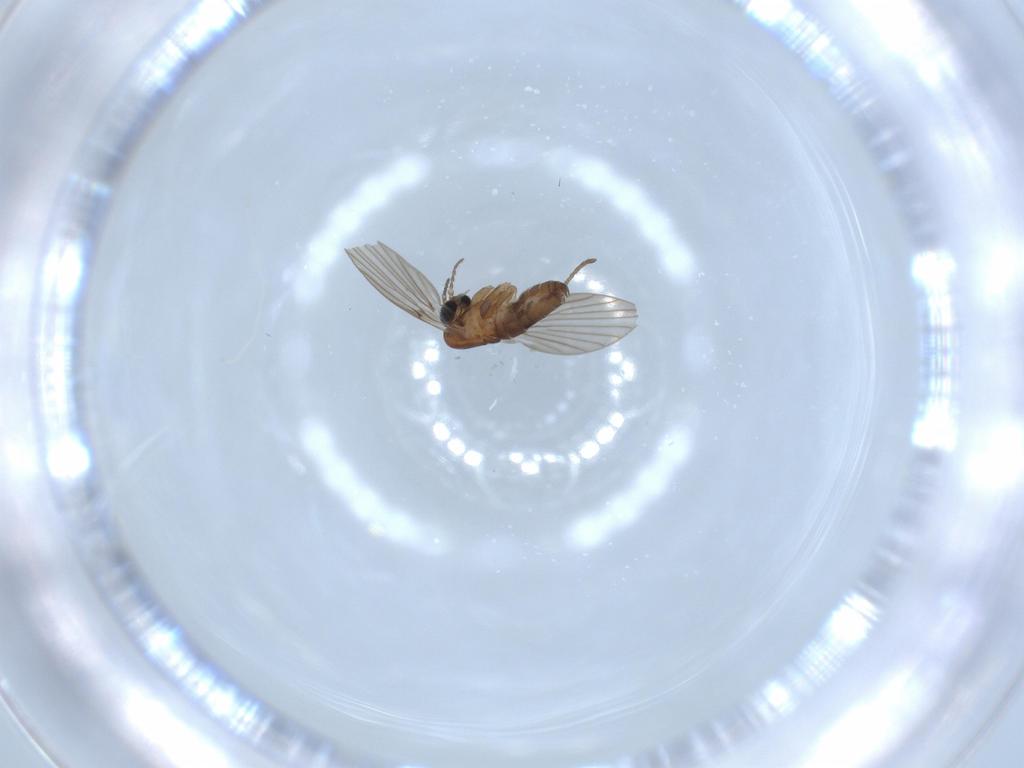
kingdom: Animalia
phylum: Arthropoda
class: Insecta
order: Diptera
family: Psychodidae
